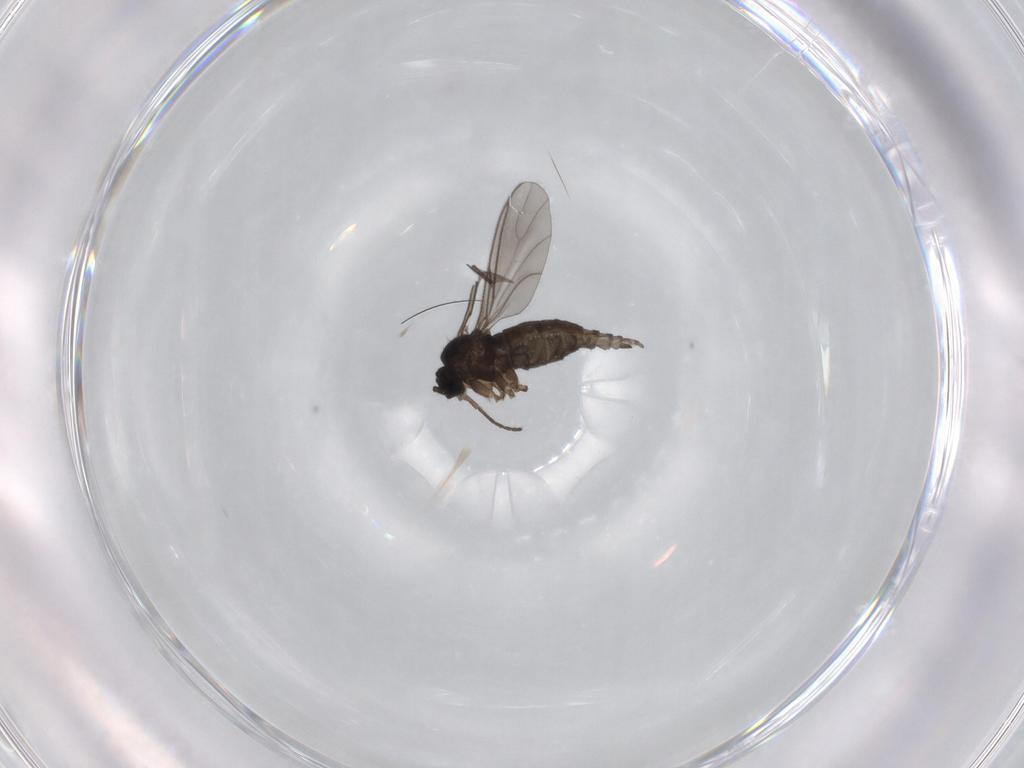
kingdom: Animalia
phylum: Arthropoda
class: Insecta
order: Diptera
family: Sciaridae
